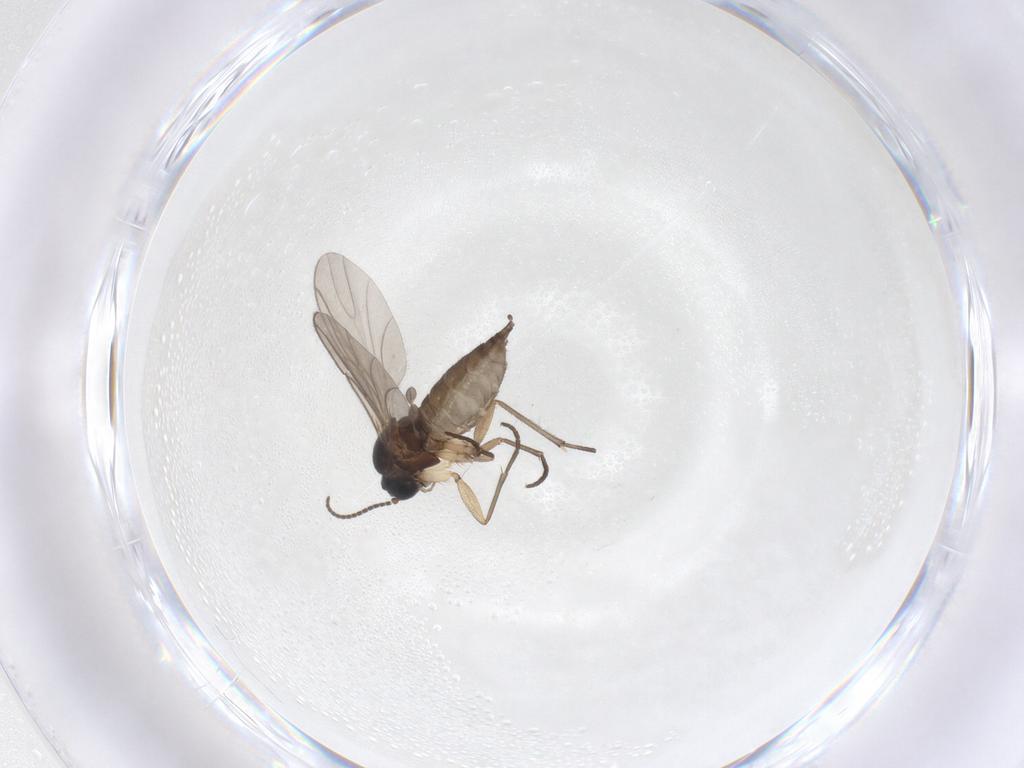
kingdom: Animalia
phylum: Arthropoda
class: Insecta
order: Diptera
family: Sciaridae
